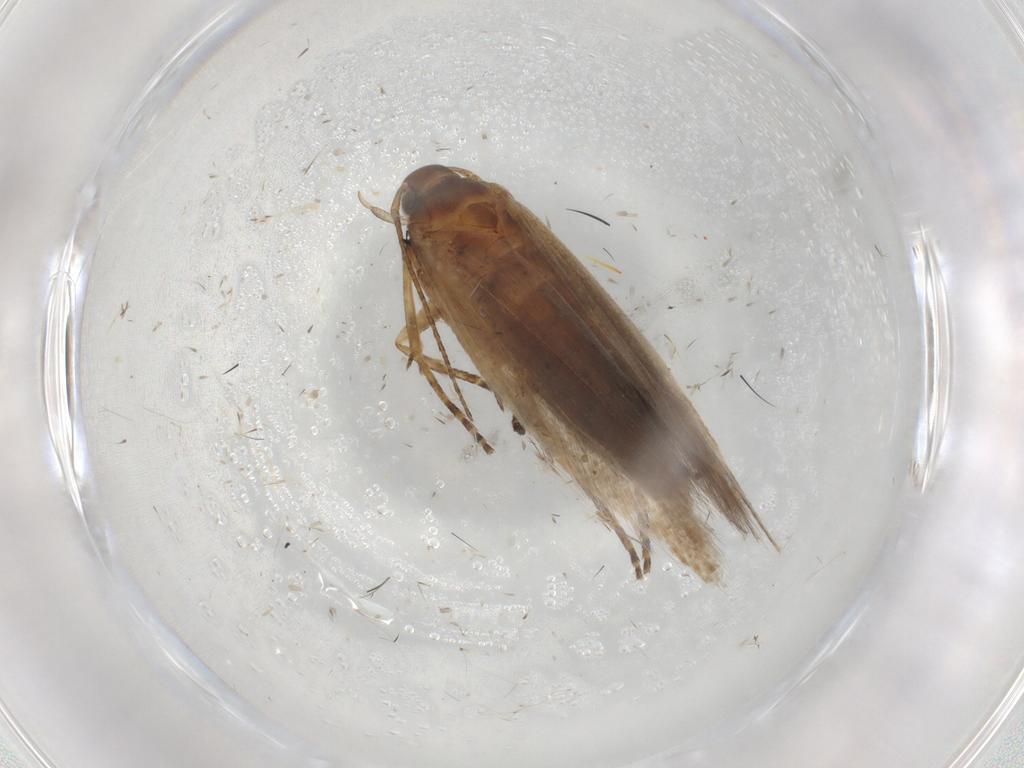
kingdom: Animalia
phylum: Arthropoda
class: Insecta
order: Lepidoptera
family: Gelechiidae
